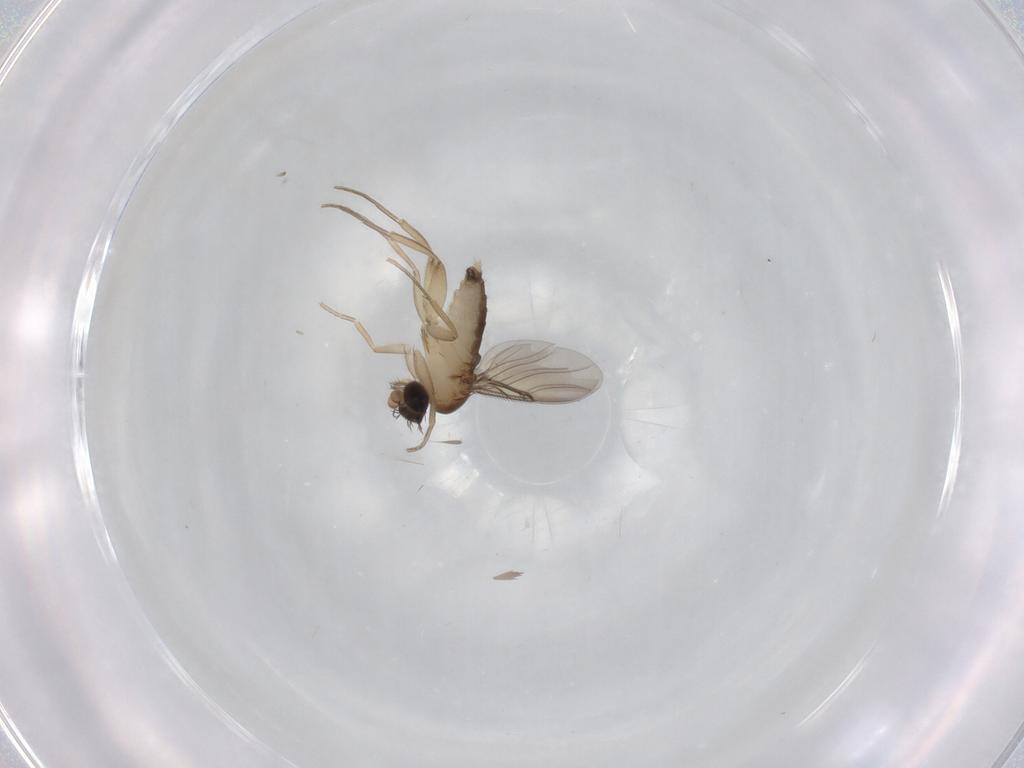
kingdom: Animalia
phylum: Arthropoda
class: Insecta
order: Diptera
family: Phoridae
